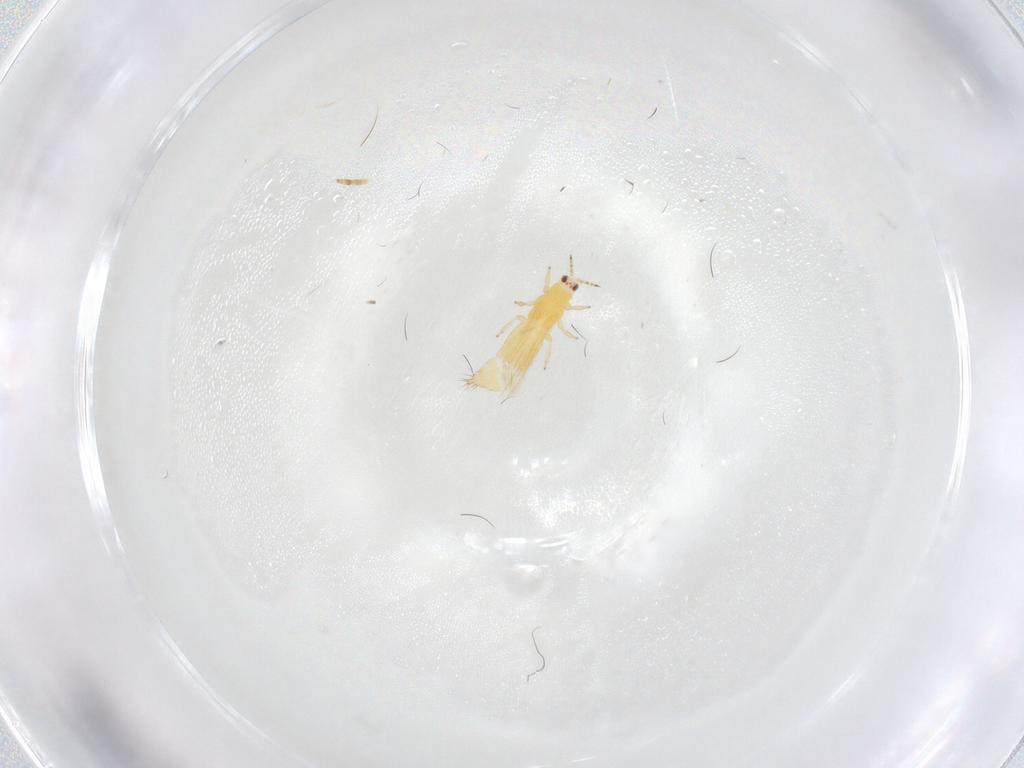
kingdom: Animalia
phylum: Arthropoda
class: Insecta
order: Thysanoptera
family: Thripidae
